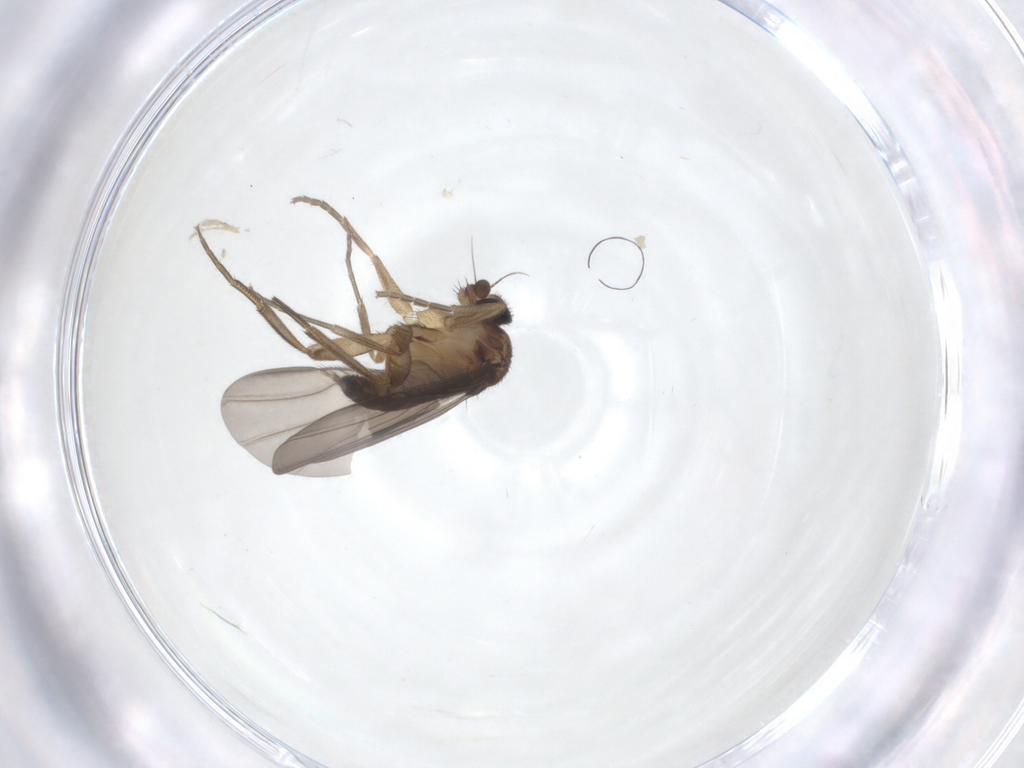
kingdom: Animalia
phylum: Arthropoda
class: Insecta
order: Diptera
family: Phoridae
